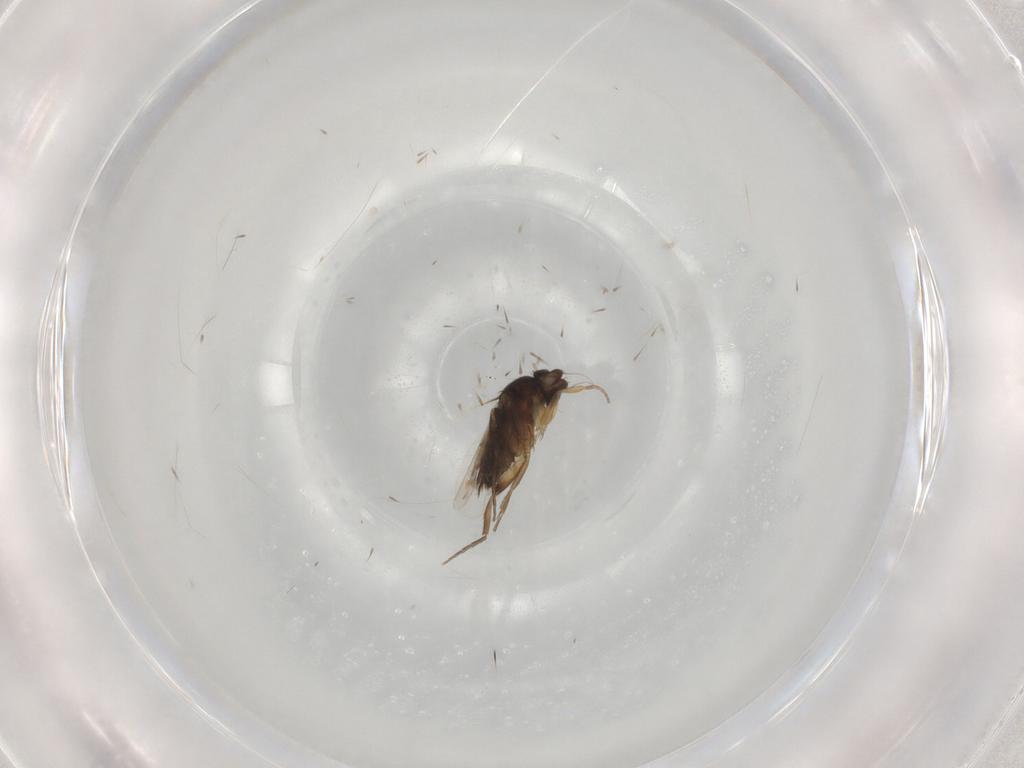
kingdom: Animalia
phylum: Arthropoda
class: Insecta
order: Diptera
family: Phoridae
